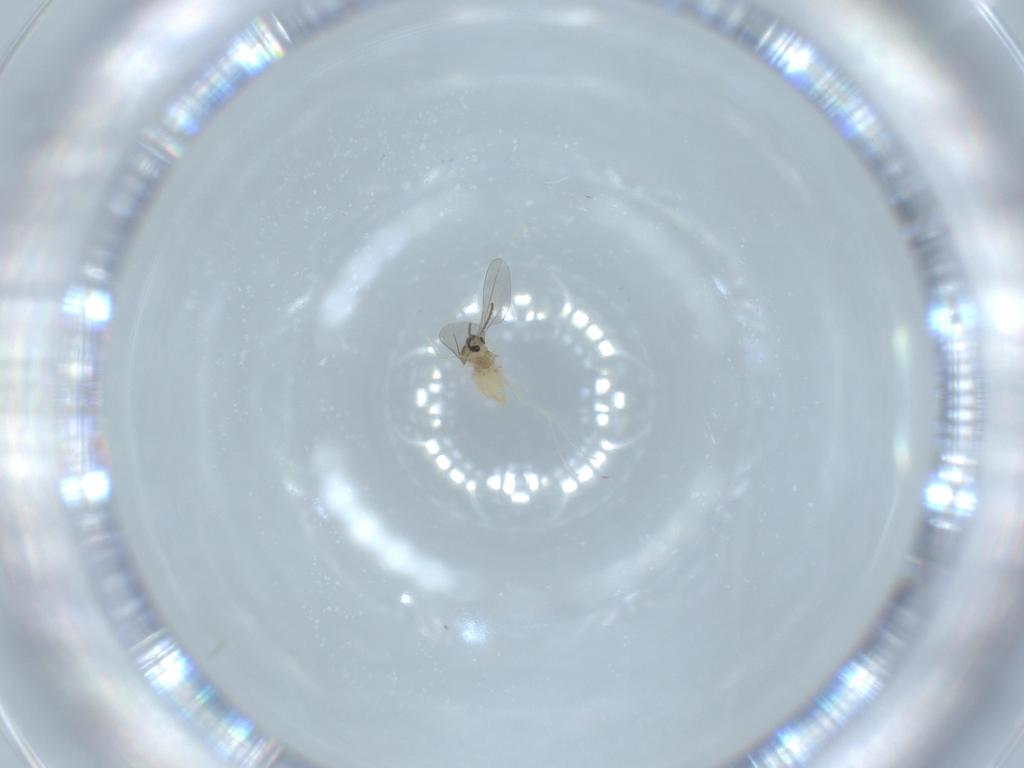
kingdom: Animalia
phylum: Arthropoda
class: Insecta
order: Diptera
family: Cecidomyiidae
